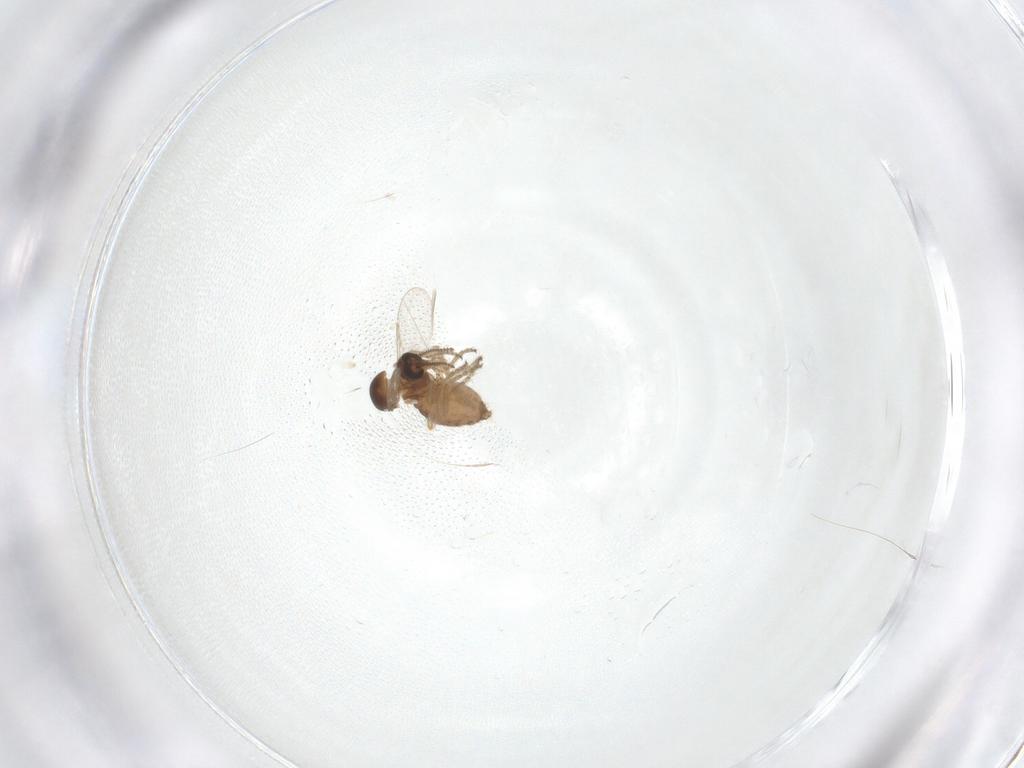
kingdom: Animalia
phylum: Arthropoda
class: Insecta
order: Diptera
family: Ceratopogonidae
